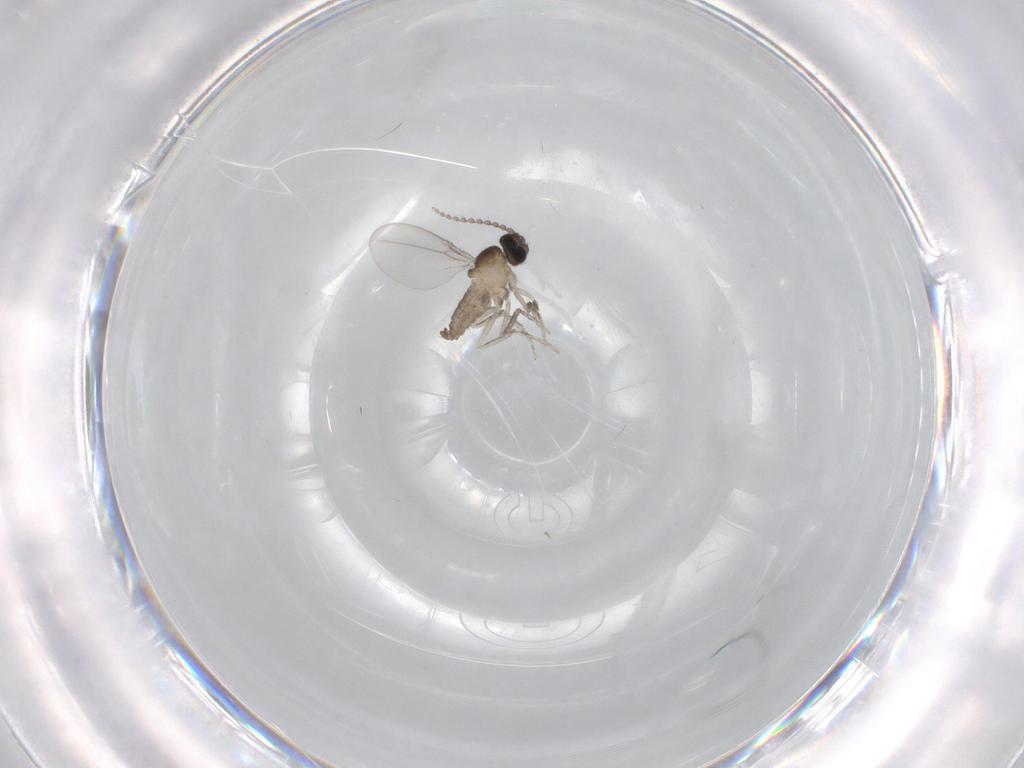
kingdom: Animalia
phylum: Arthropoda
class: Insecta
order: Diptera
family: Cecidomyiidae
